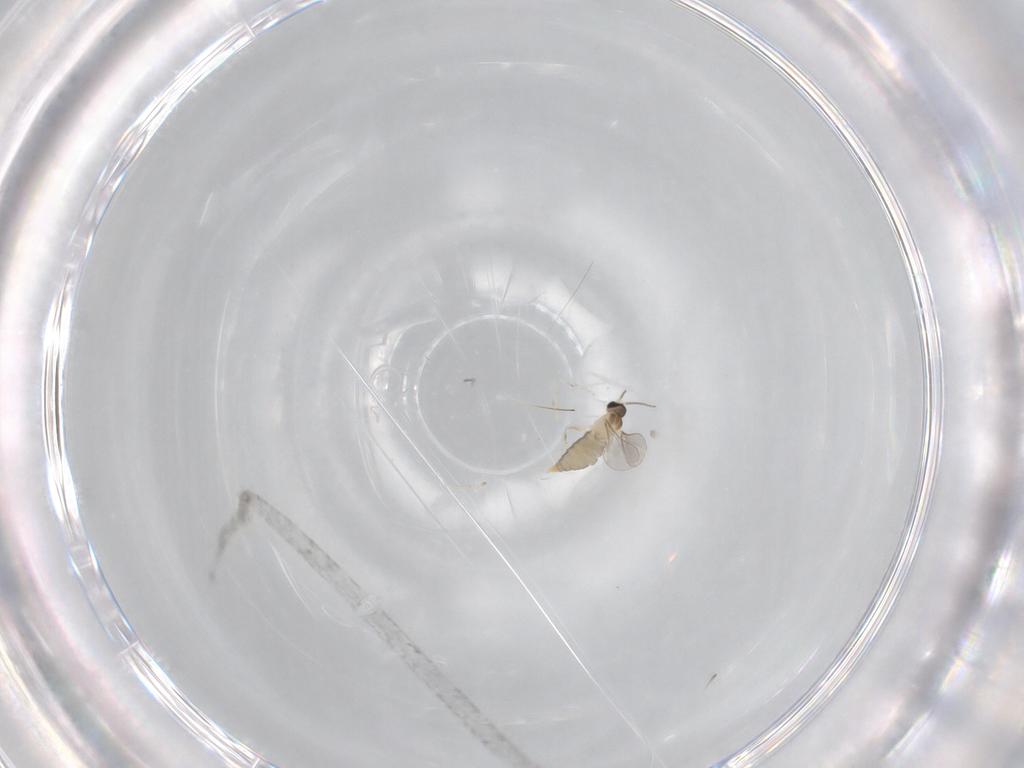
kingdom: Animalia
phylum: Arthropoda
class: Insecta
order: Diptera
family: Cecidomyiidae
